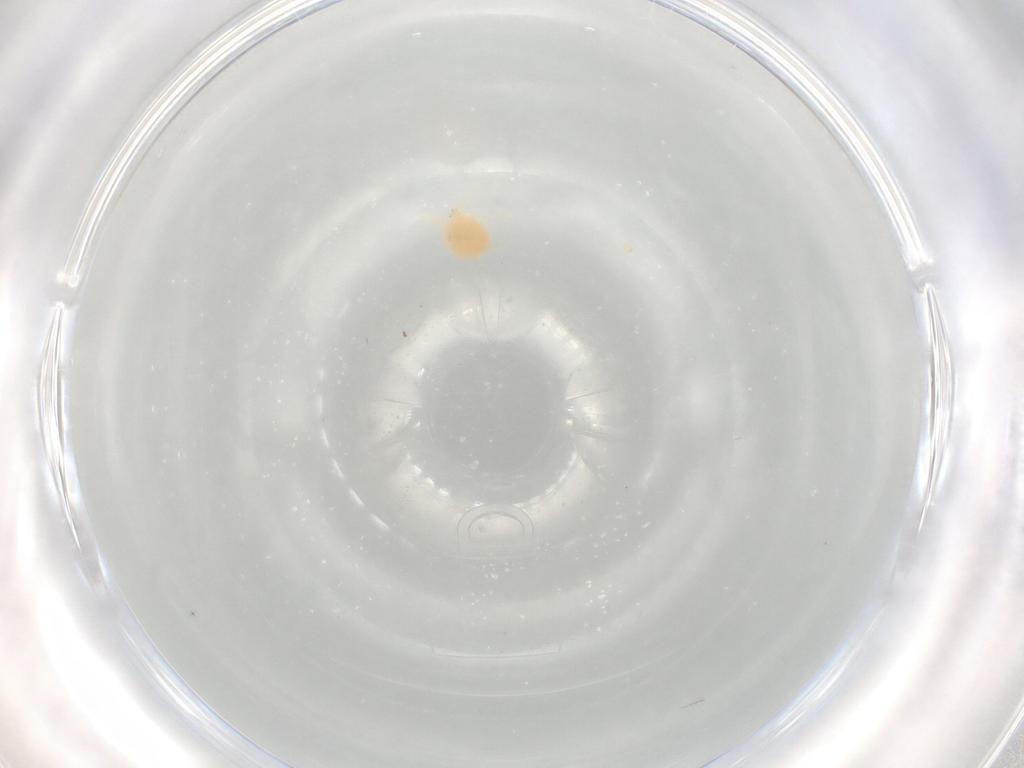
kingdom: Animalia
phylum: Arthropoda
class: Arachnida
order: Trombidiformes
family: Hydryphantidae
